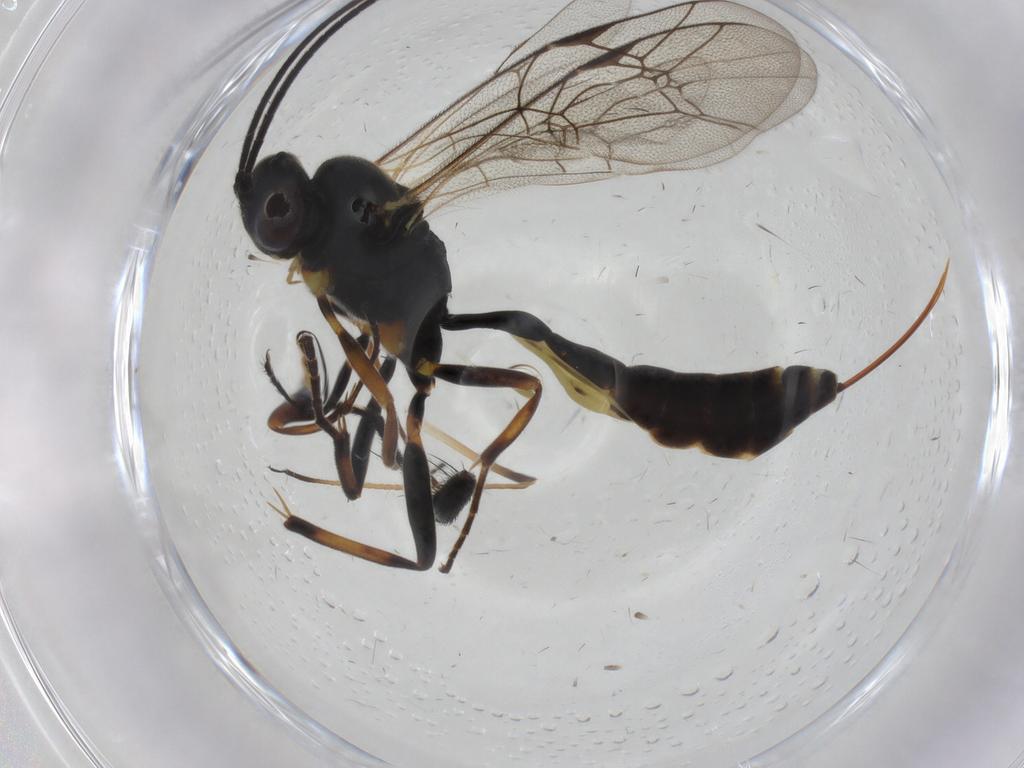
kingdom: Animalia
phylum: Arthropoda
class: Insecta
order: Hymenoptera
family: Ichneumonidae
